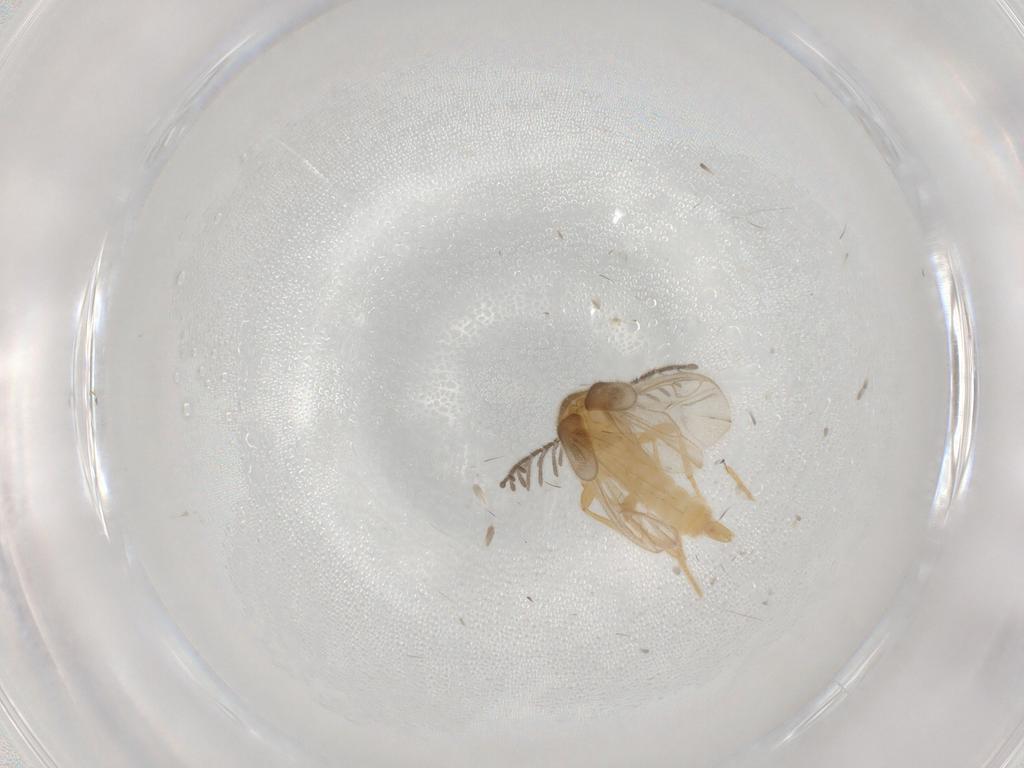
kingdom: Animalia
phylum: Arthropoda
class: Insecta
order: Coleoptera
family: Chrysomelidae
